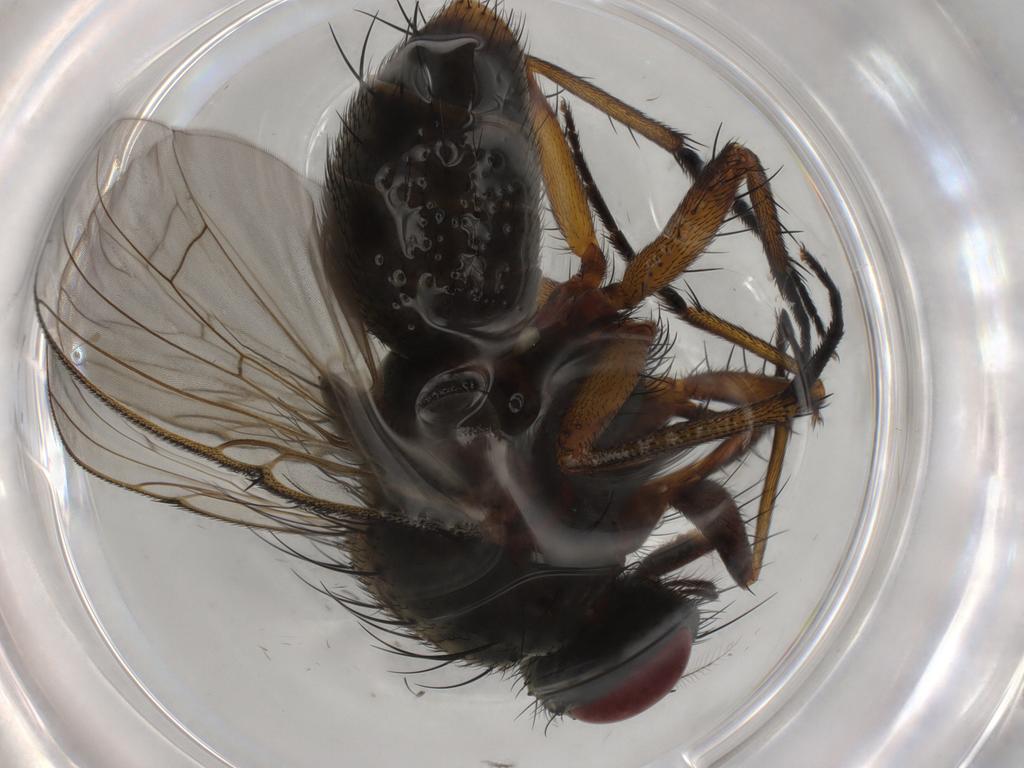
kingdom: Animalia
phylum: Arthropoda
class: Insecta
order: Diptera
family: Muscidae
